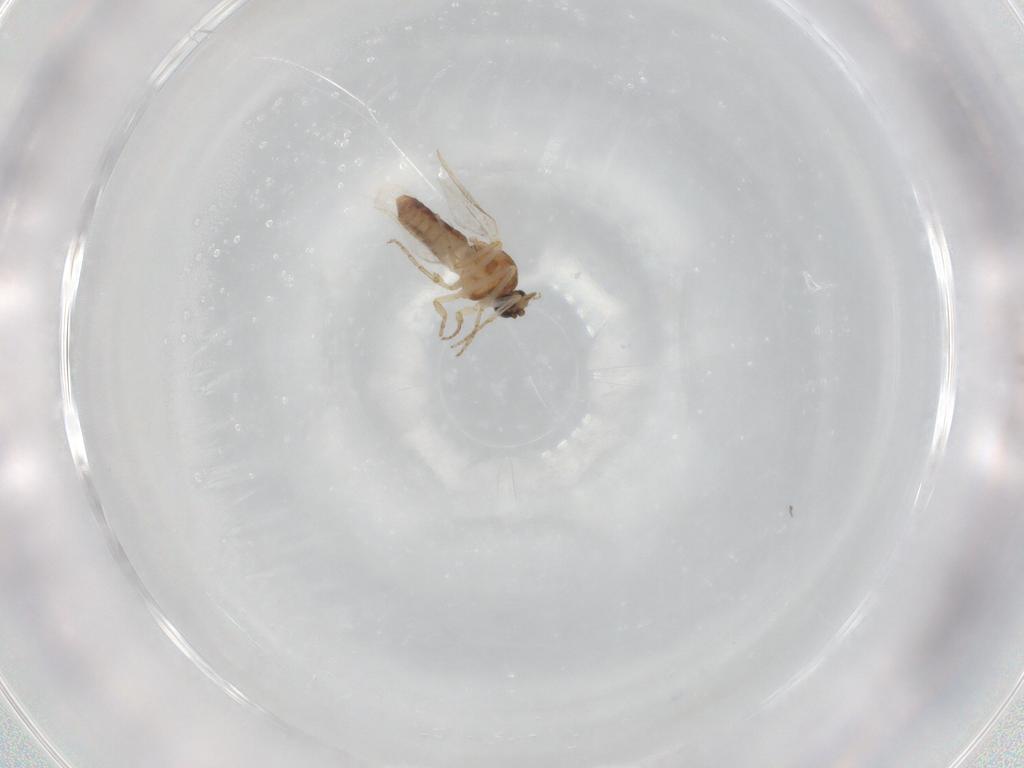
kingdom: Animalia
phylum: Arthropoda
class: Insecta
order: Diptera
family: Ceratopogonidae
